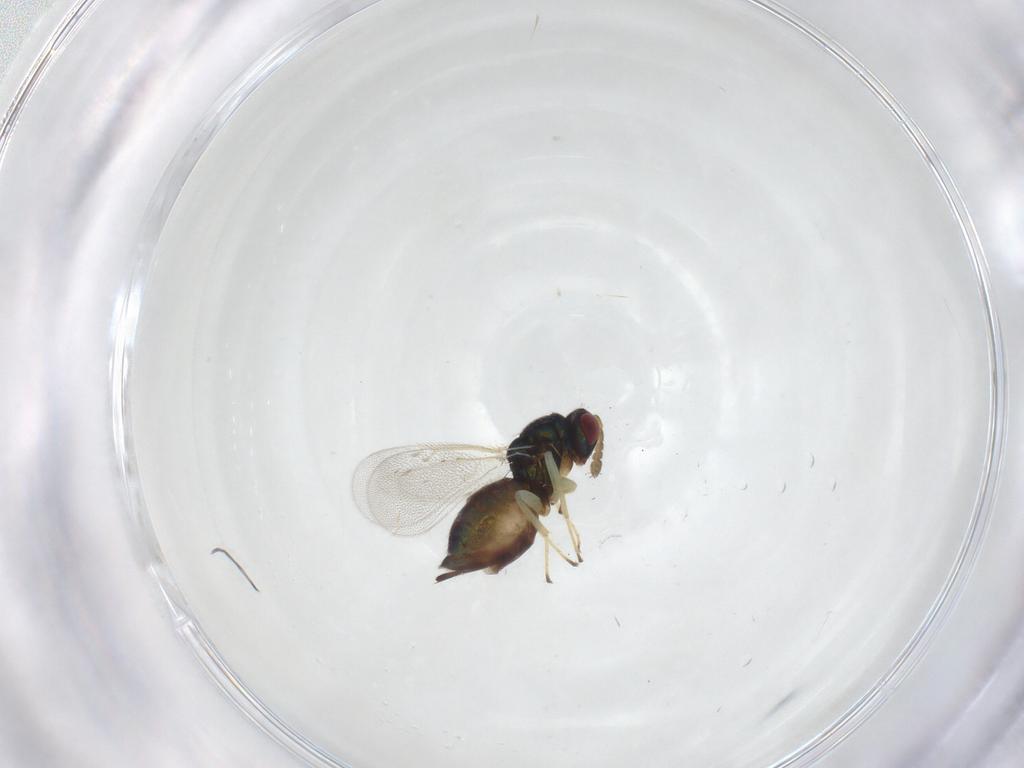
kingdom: Animalia
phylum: Arthropoda
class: Insecta
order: Hymenoptera
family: Eulophidae
